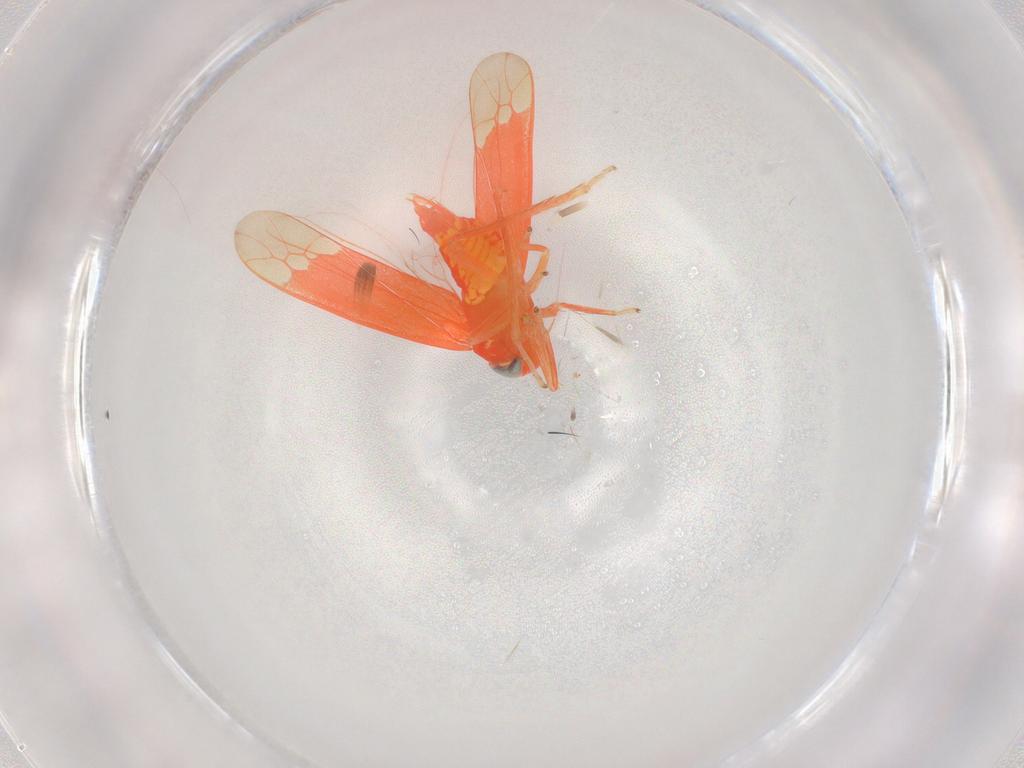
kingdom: Animalia
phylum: Arthropoda
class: Insecta
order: Hemiptera
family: Cicadellidae
